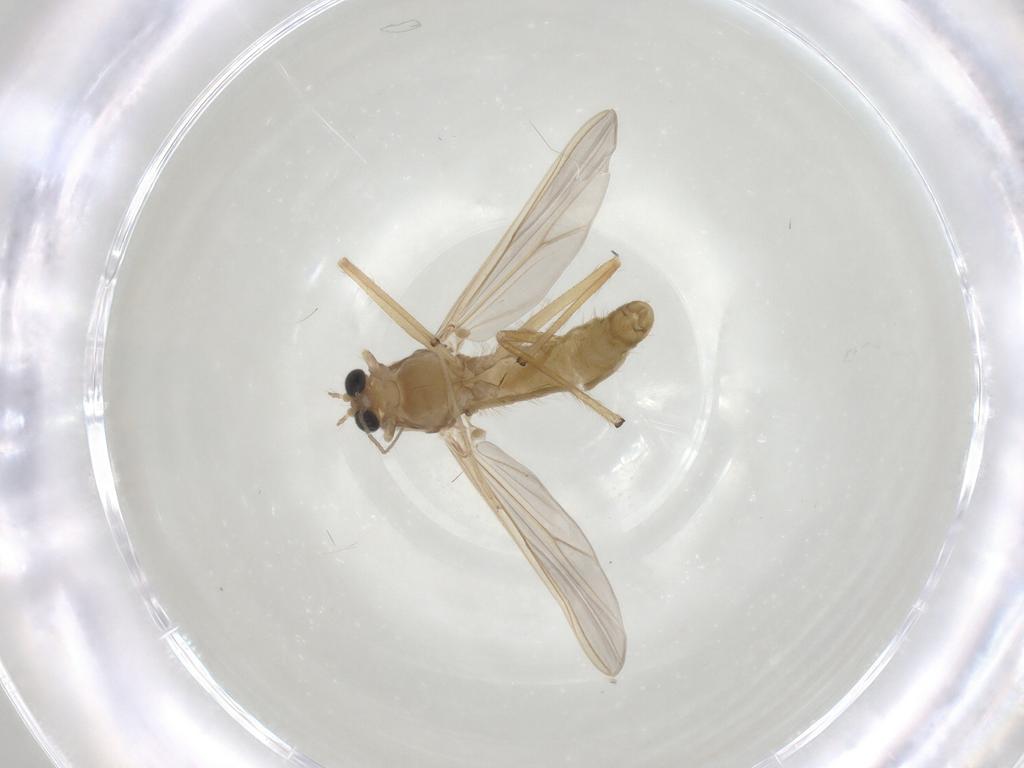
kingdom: Animalia
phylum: Arthropoda
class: Insecta
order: Diptera
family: Chironomidae
